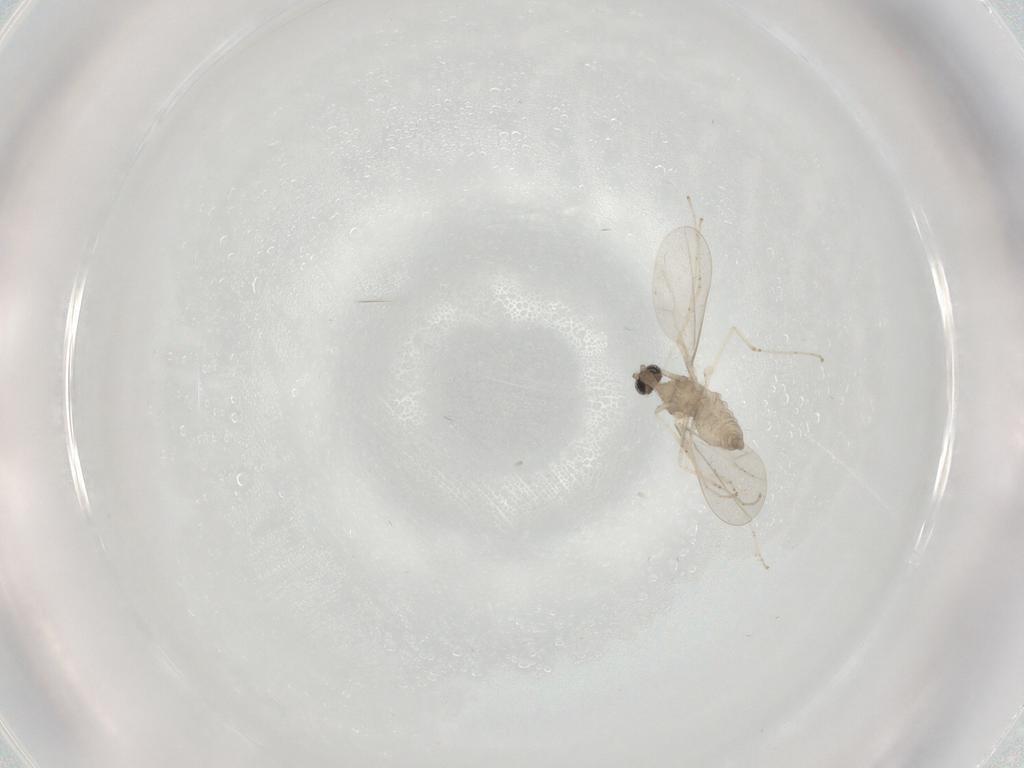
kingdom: Animalia
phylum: Arthropoda
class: Insecta
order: Diptera
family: Cecidomyiidae
